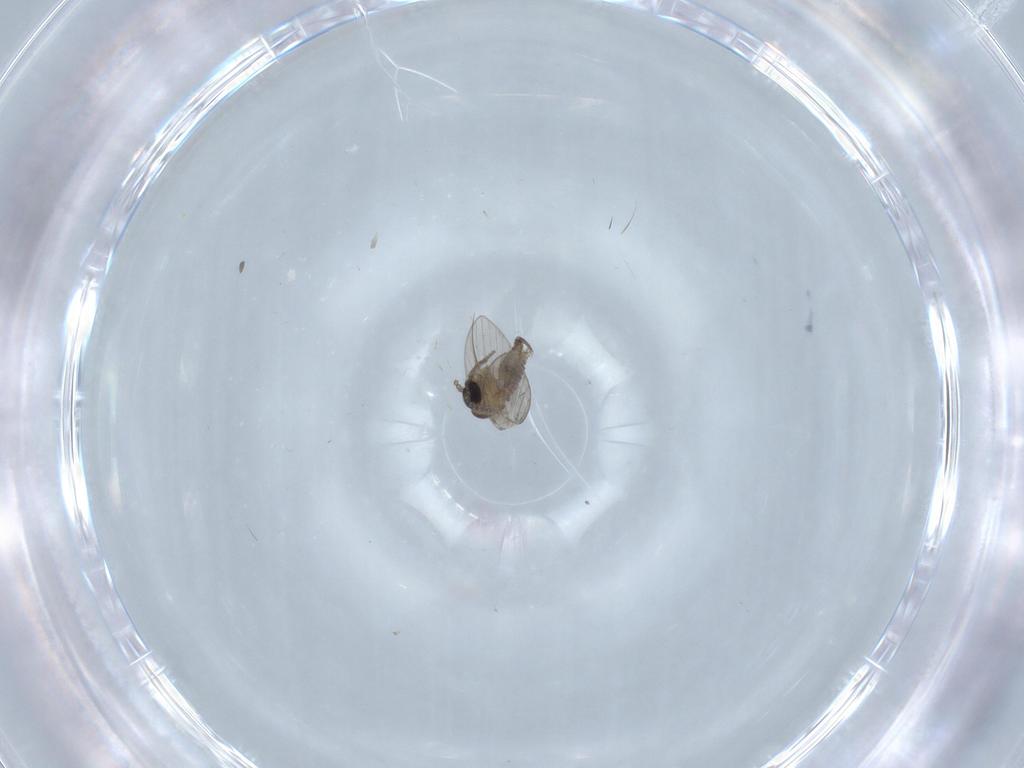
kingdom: Animalia
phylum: Arthropoda
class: Insecta
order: Diptera
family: Psychodidae
